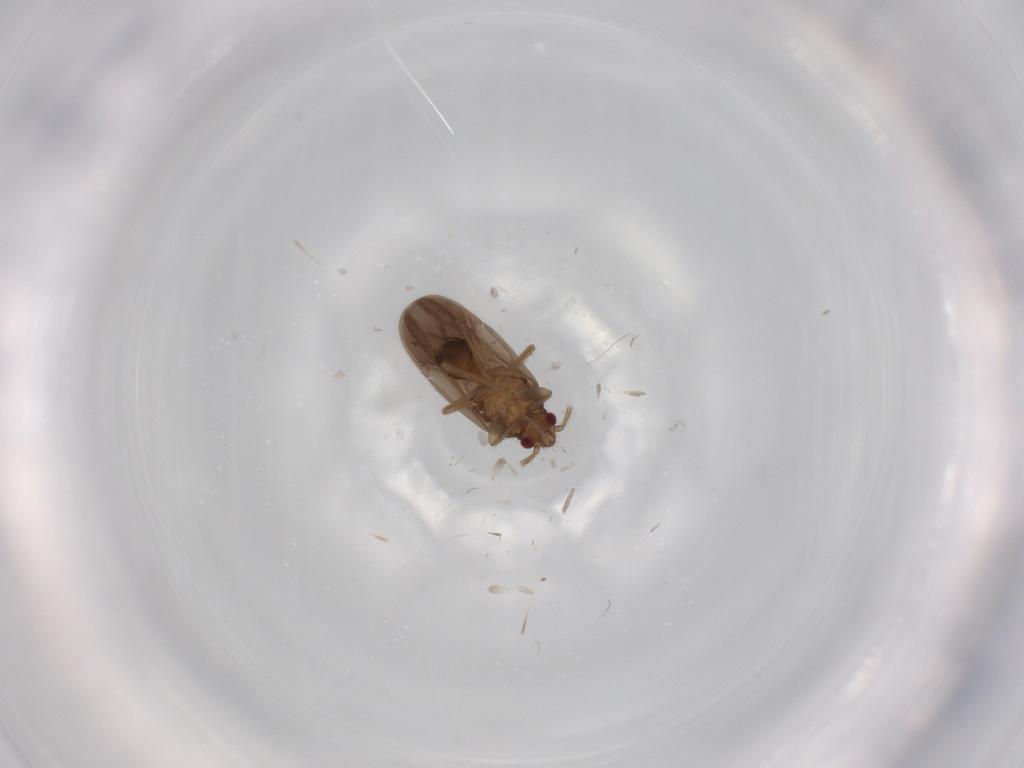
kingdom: Animalia
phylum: Arthropoda
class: Insecta
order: Hemiptera
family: Ceratocombidae
